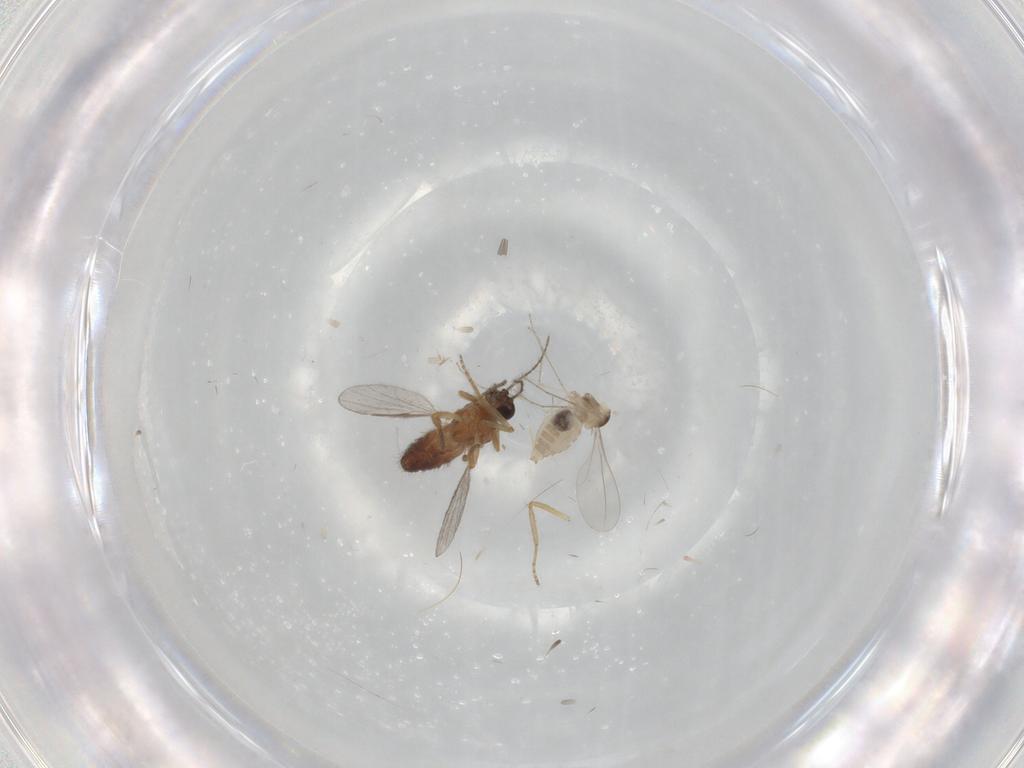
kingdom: Animalia
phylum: Arthropoda
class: Insecta
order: Diptera
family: Ceratopogonidae
